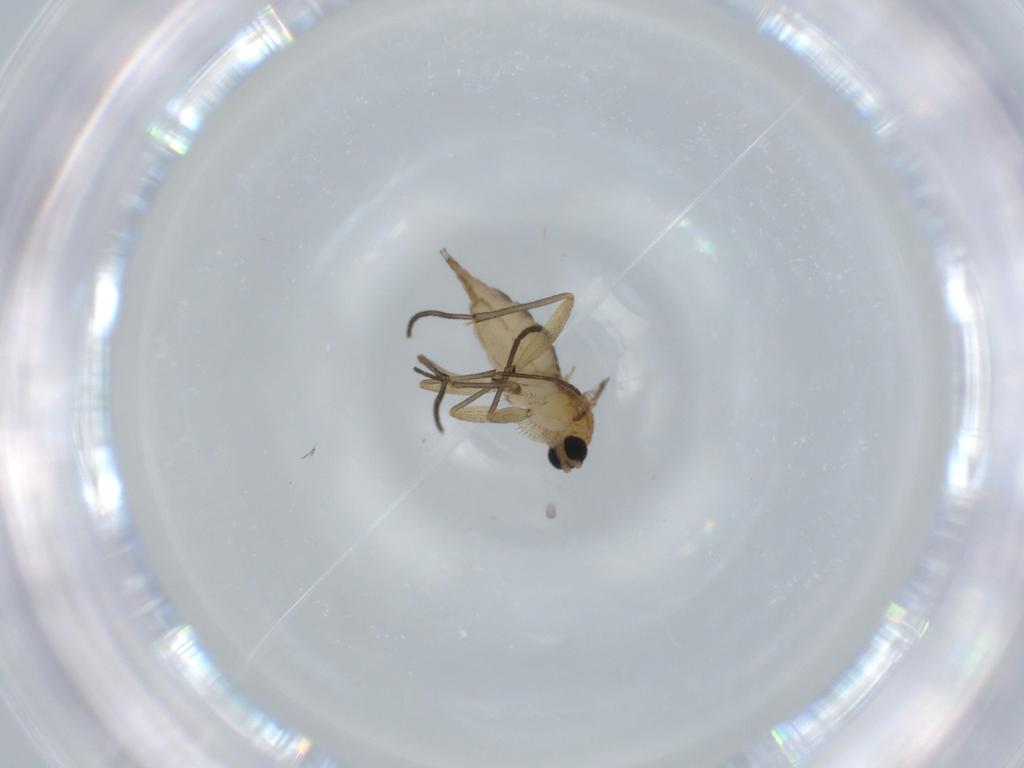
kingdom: Animalia
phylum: Arthropoda
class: Insecta
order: Diptera
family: Sciaridae
